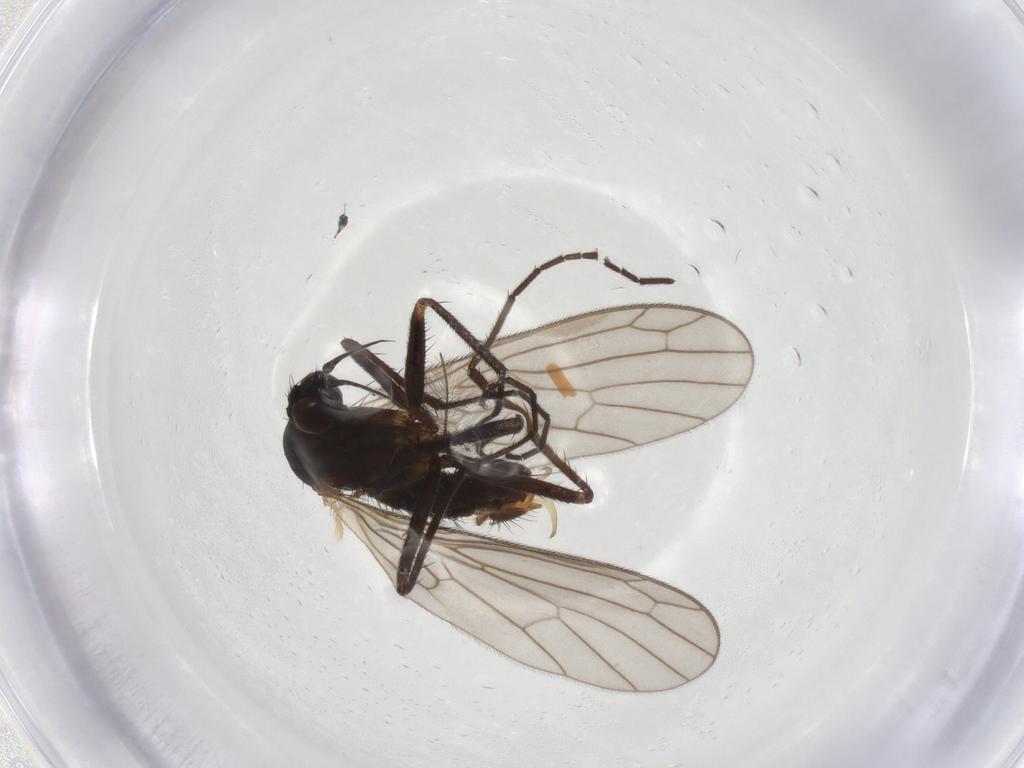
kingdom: Animalia
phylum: Arthropoda
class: Insecta
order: Diptera
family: Empididae
